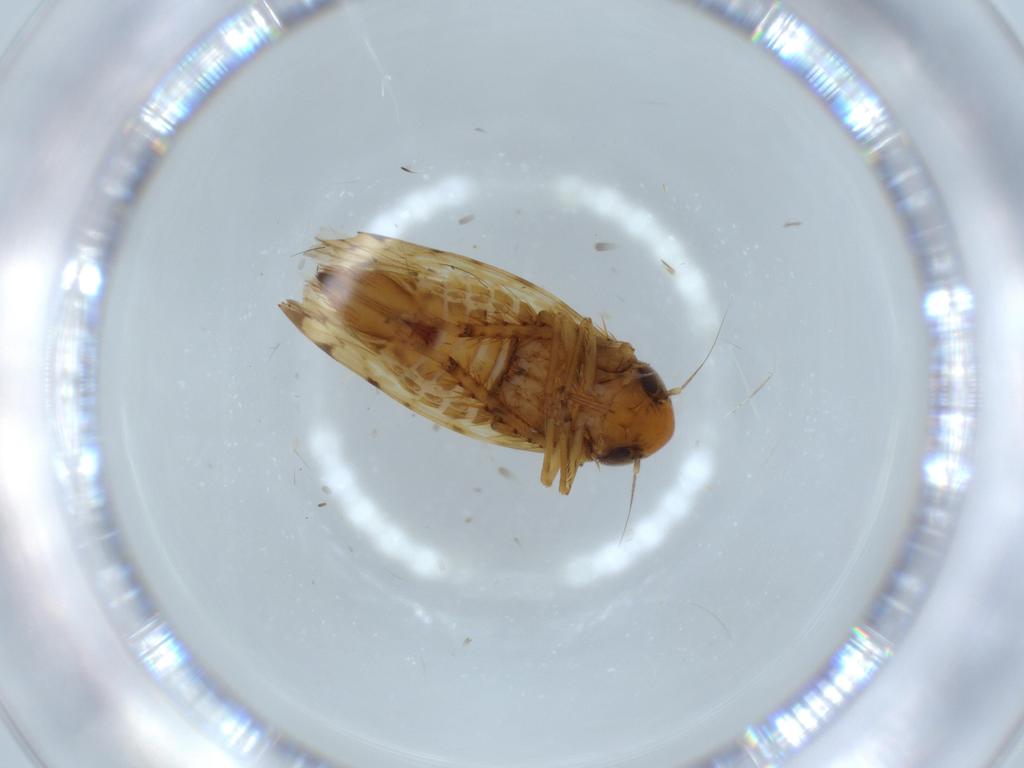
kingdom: Animalia
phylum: Arthropoda
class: Insecta
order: Hemiptera
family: Cicadellidae
